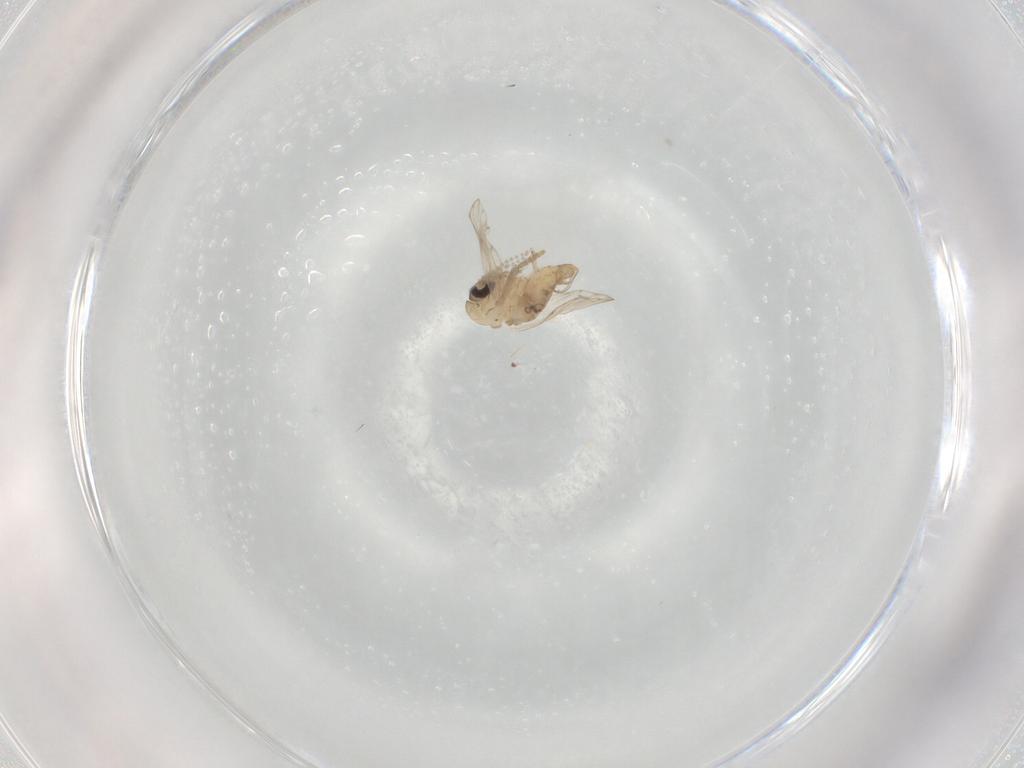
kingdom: Animalia
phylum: Arthropoda
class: Insecta
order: Diptera
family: Psychodidae
